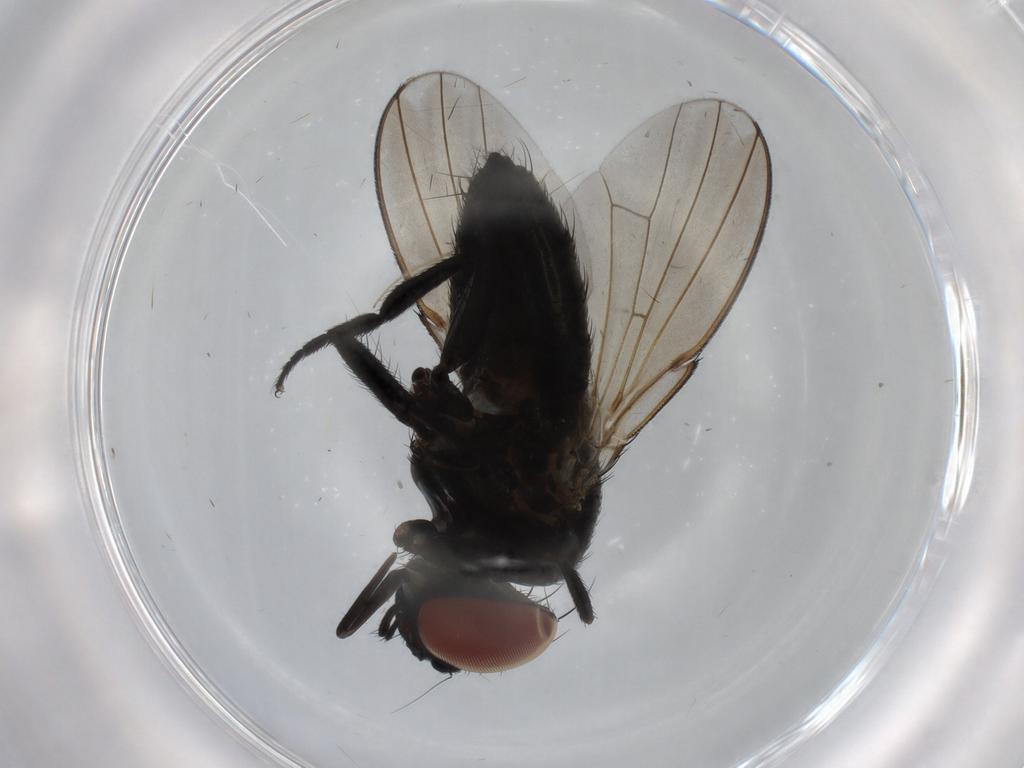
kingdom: Animalia
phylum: Arthropoda
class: Insecta
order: Diptera
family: Milichiidae
